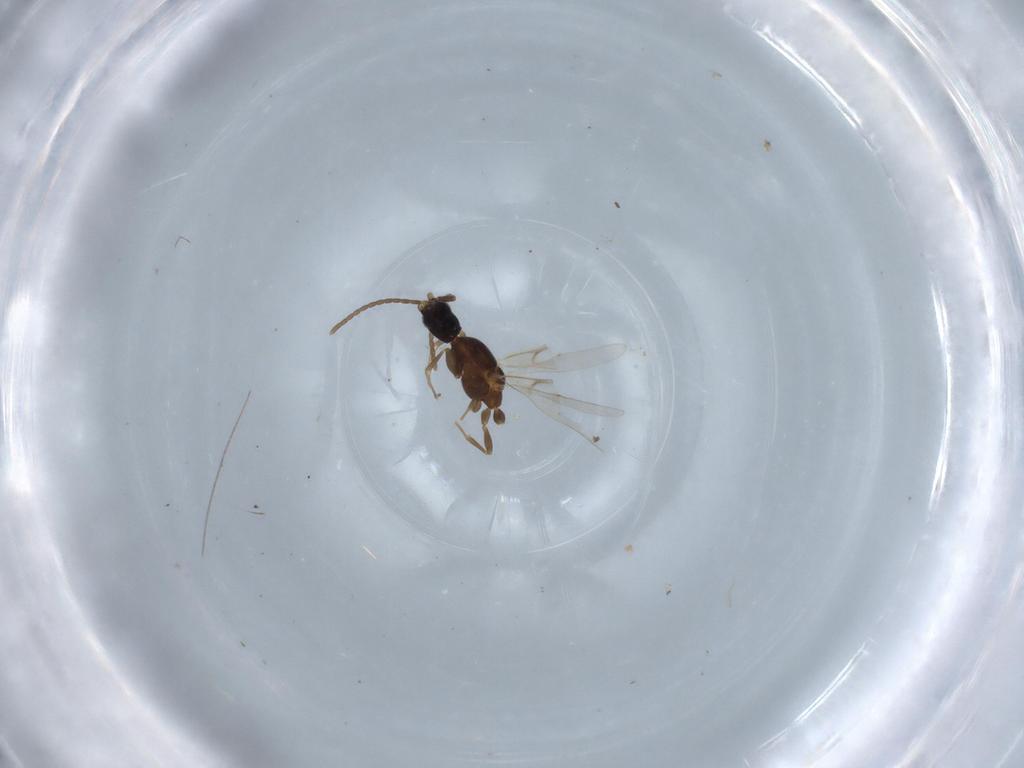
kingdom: Animalia
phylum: Arthropoda
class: Insecta
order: Hymenoptera
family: Formicidae
